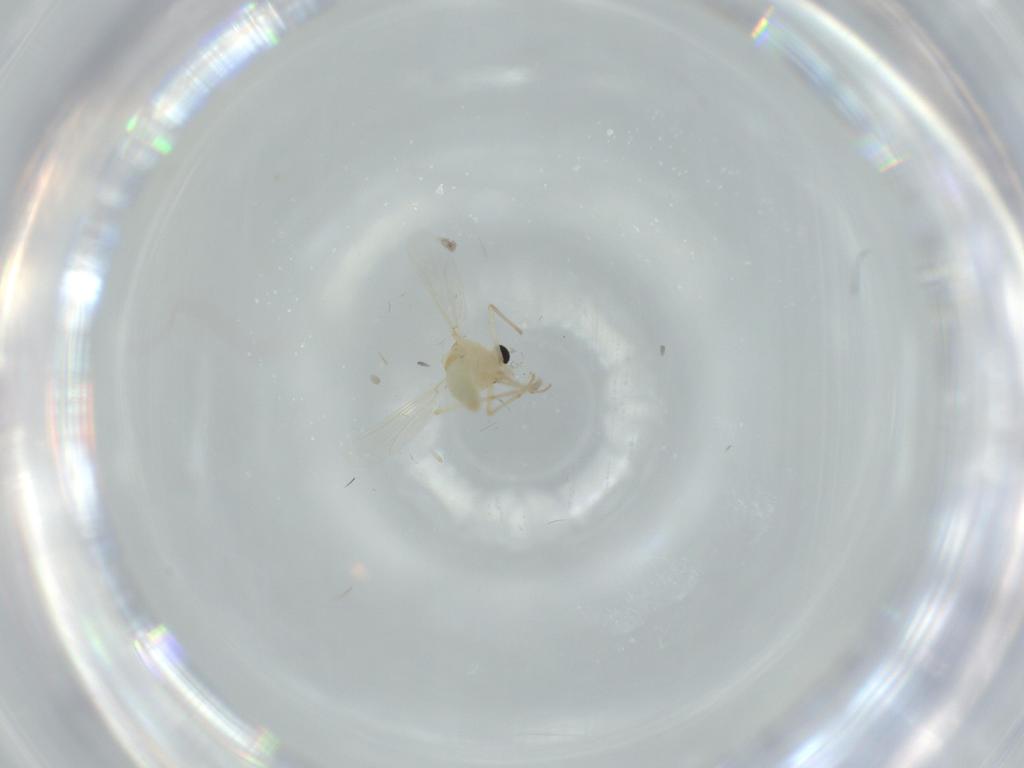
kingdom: Animalia
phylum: Arthropoda
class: Insecta
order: Diptera
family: Chironomidae
